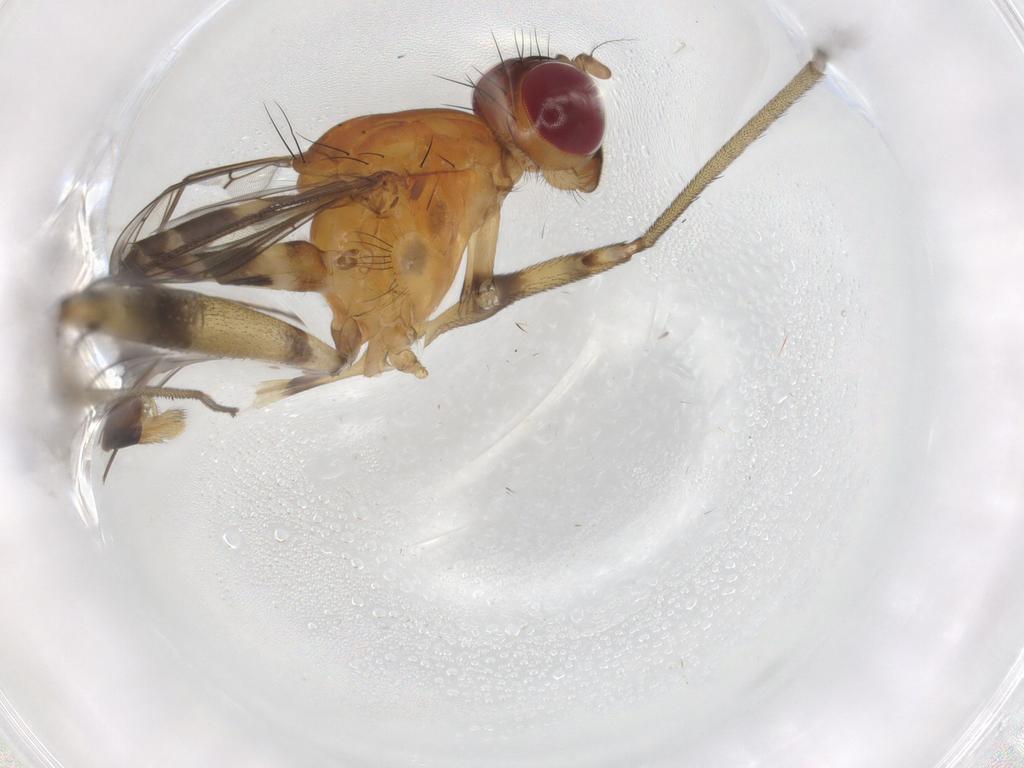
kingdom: Animalia
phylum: Arthropoda
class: Insecta
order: Diptera
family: Micropezidae
